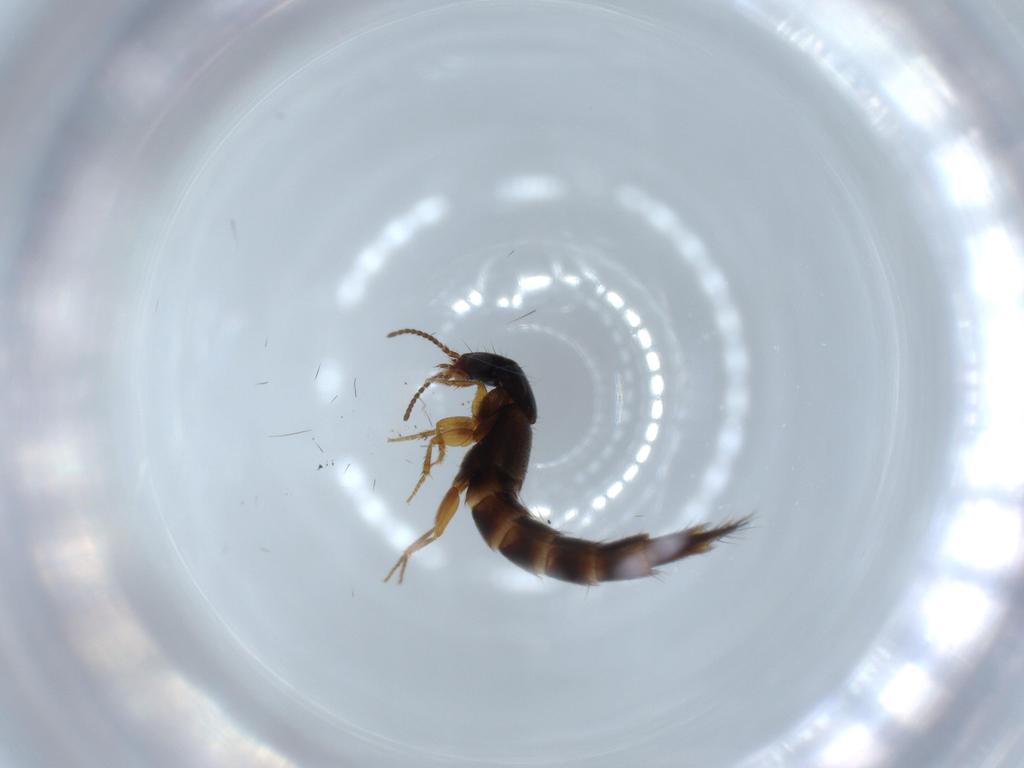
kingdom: Animalia
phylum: Arthropoda
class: Insecta
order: Coleoptera
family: Staphylinidae
